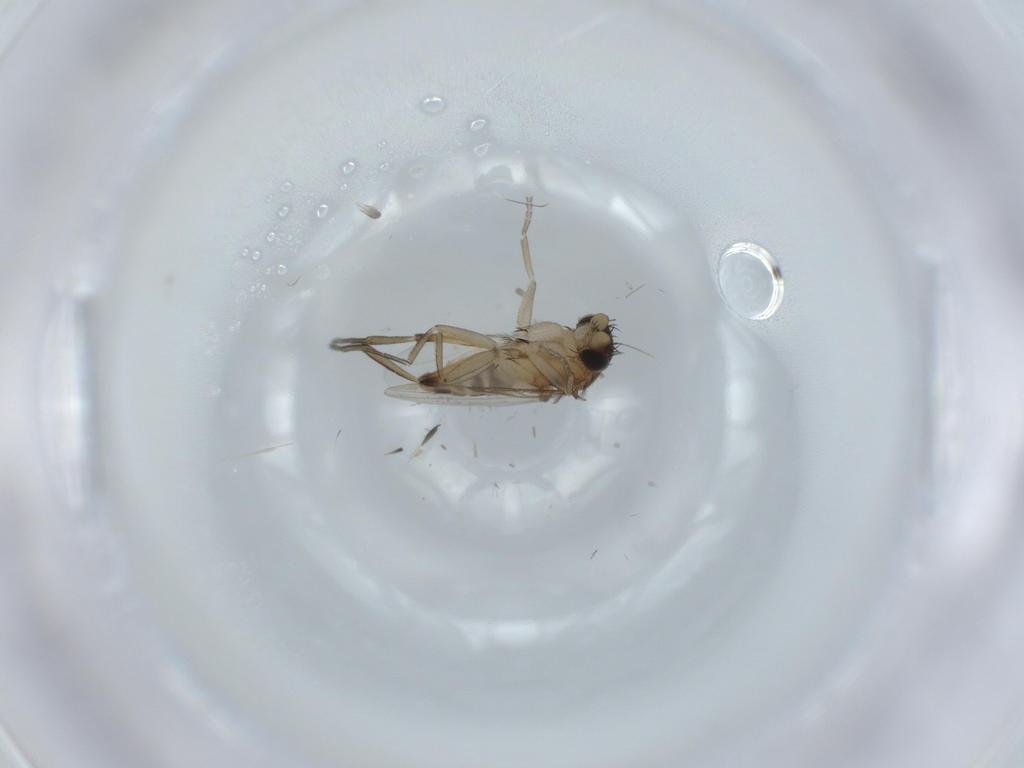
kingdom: Animalia
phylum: Arthropoda
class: Insecta
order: Diptera
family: Phoridae
